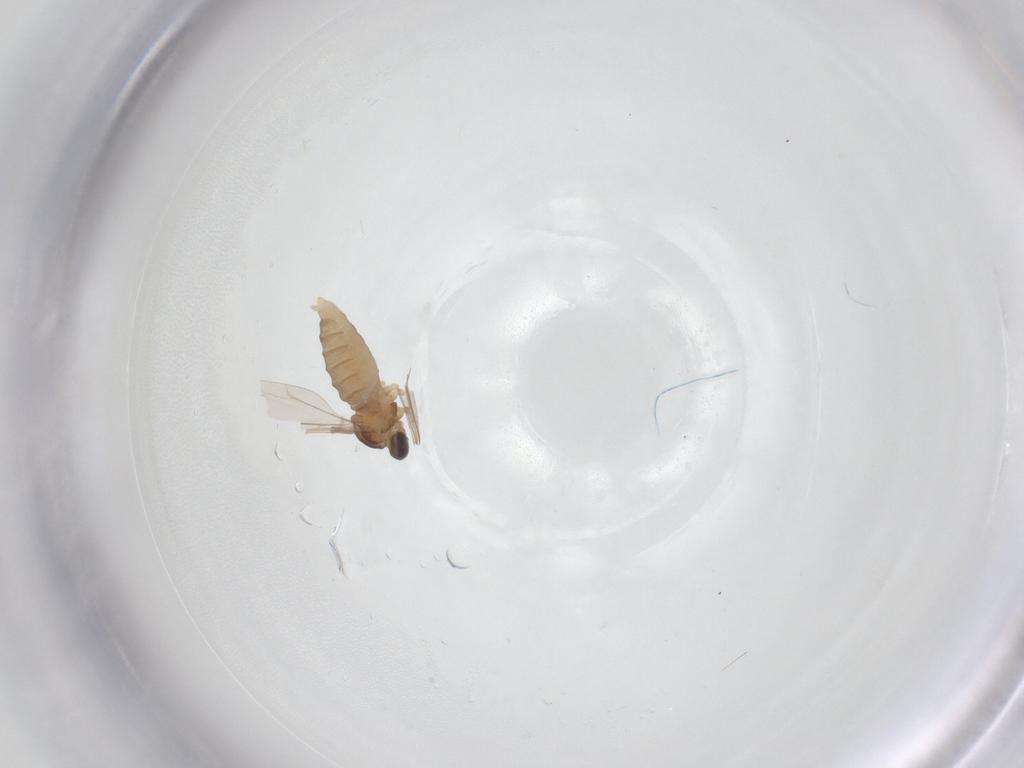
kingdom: Animalia
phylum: Arthropoda
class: Insecta
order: Diptera
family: Cecidomyiidae
